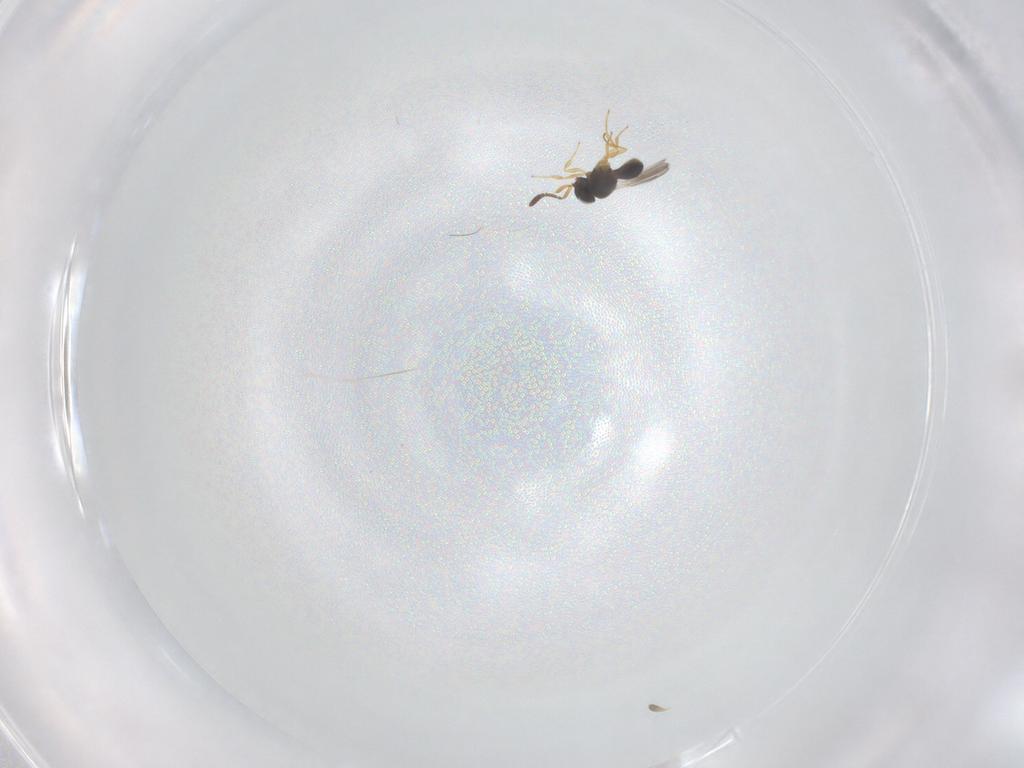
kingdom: Animalia
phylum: Arthropoda
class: Insecta
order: Hymenoptera
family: Scelionidae
